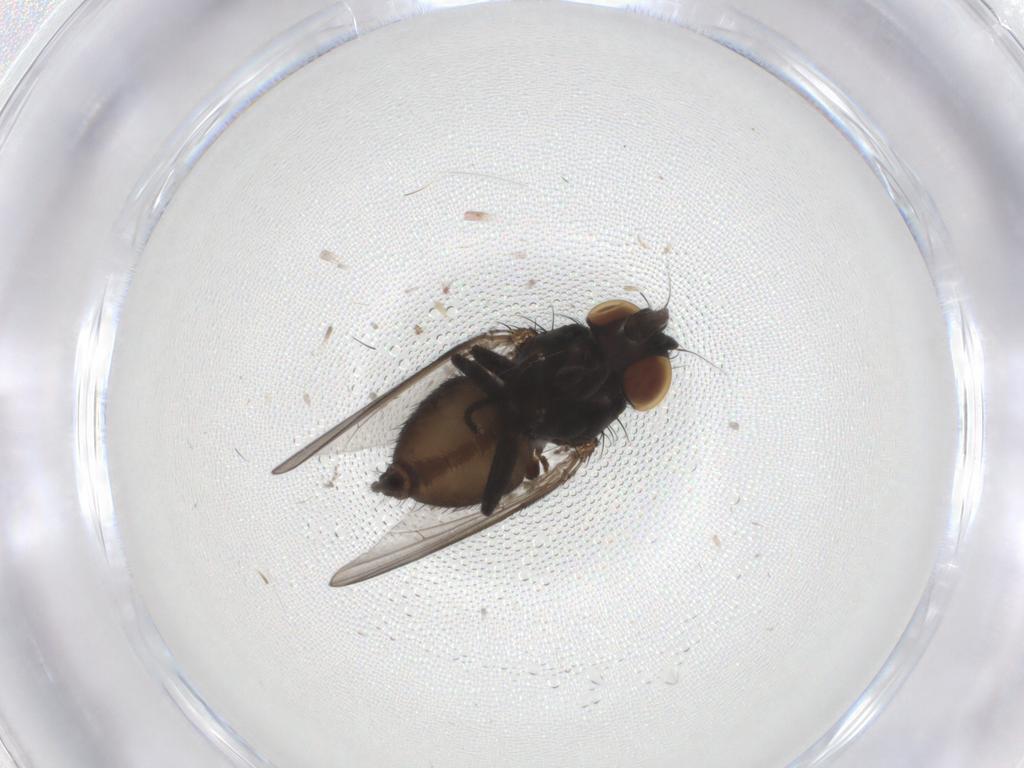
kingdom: Animalia
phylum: Arthropoda
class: Insecta
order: Diptera
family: Milichiidae
